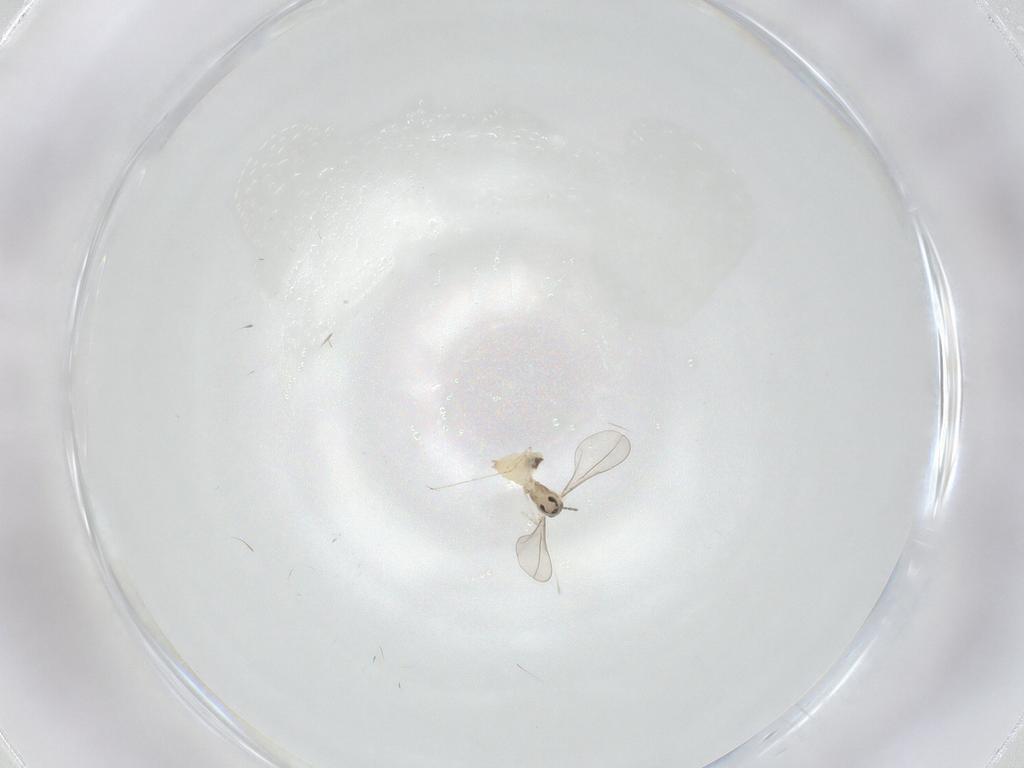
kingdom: Animalia
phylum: Arthropoda
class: Insecta
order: Diptera
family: Cecidomyiidae
